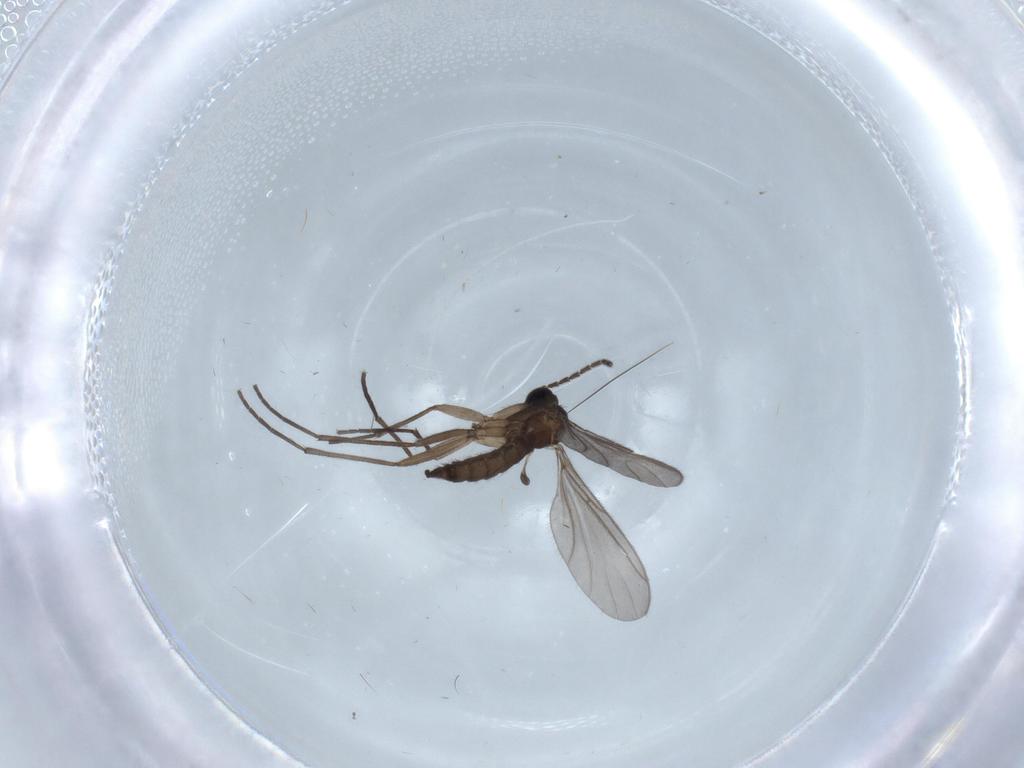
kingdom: Animalia
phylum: Arthropoda
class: Insecta
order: Diptera
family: Sciaridae
